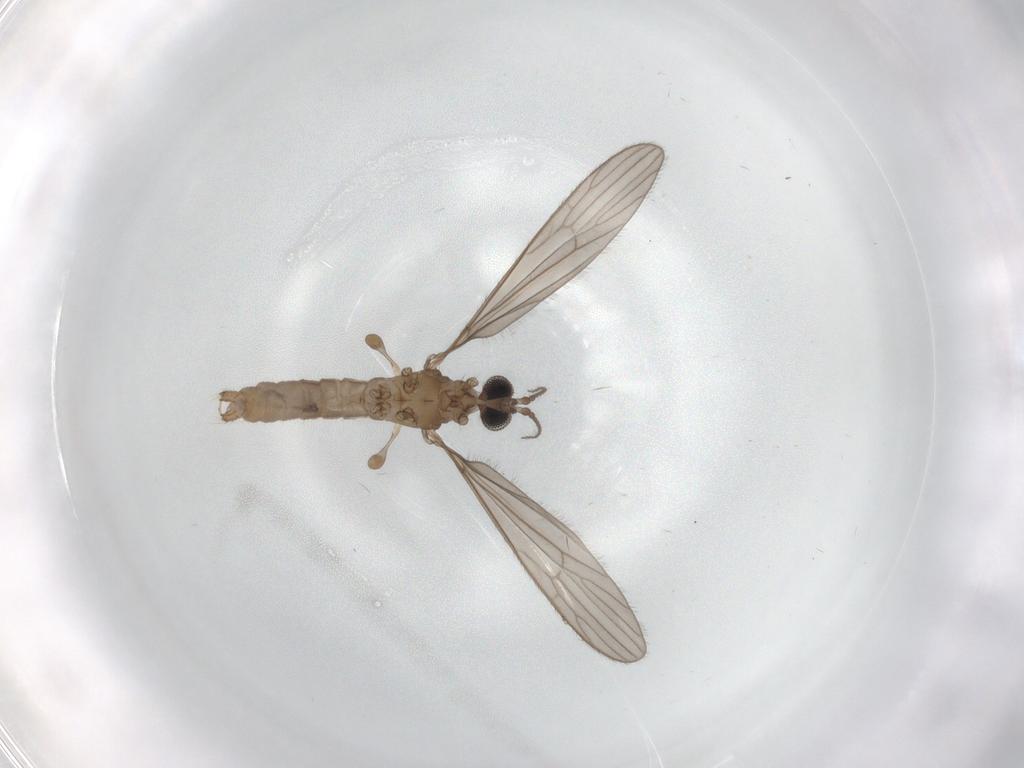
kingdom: Animalia
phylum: Arthropoda
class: Insecta
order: Diptera
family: Limoniidae
